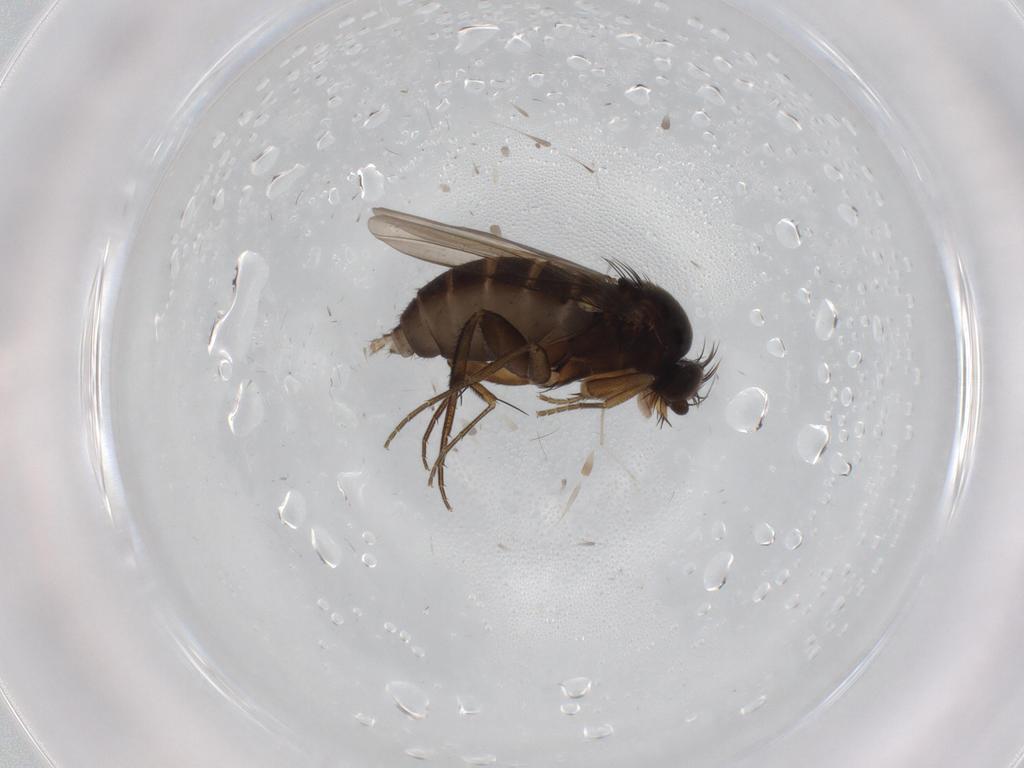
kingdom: Animalia
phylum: Arthropoda
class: Insecta
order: Diptera
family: Phoridae
